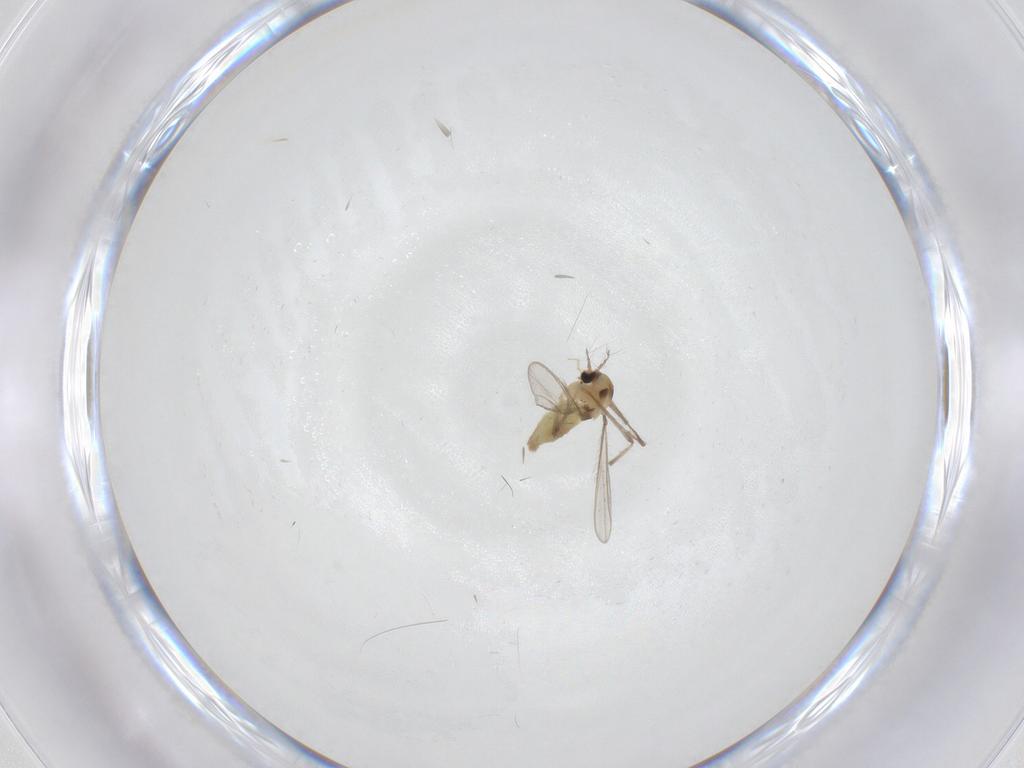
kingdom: Animalia
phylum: Arthropoda
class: Insecta
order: Diptera
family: Chironomidae
